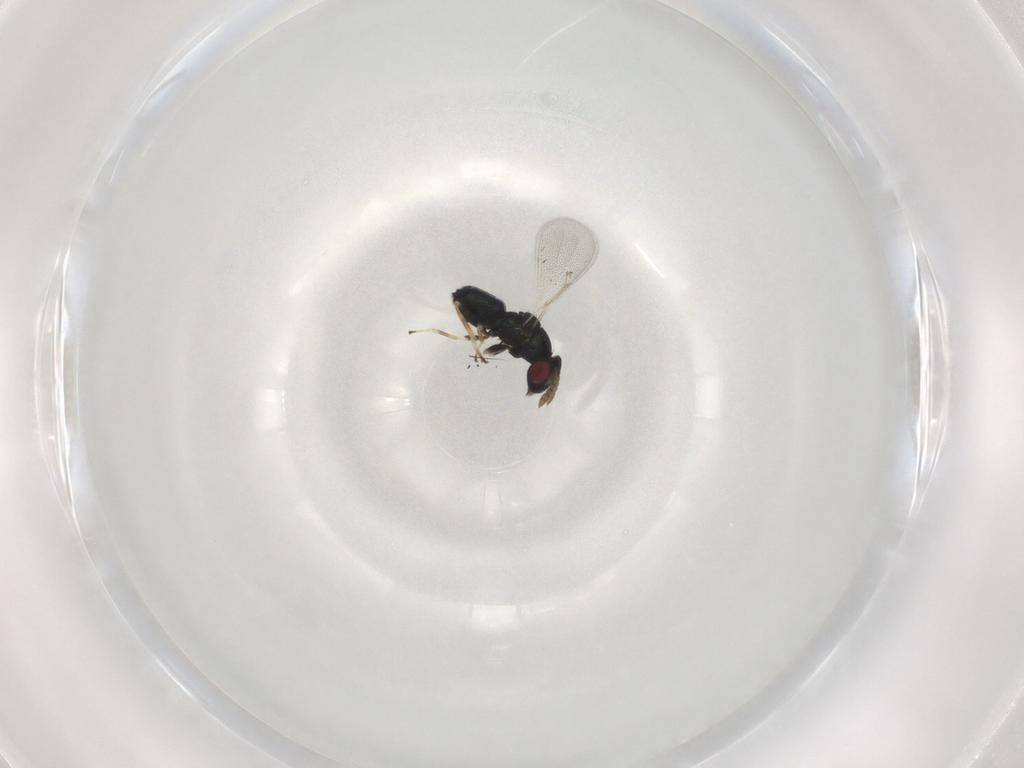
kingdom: Animalia
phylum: Arthropoda
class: Insecta
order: Hymenoptera
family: Eulophidae
